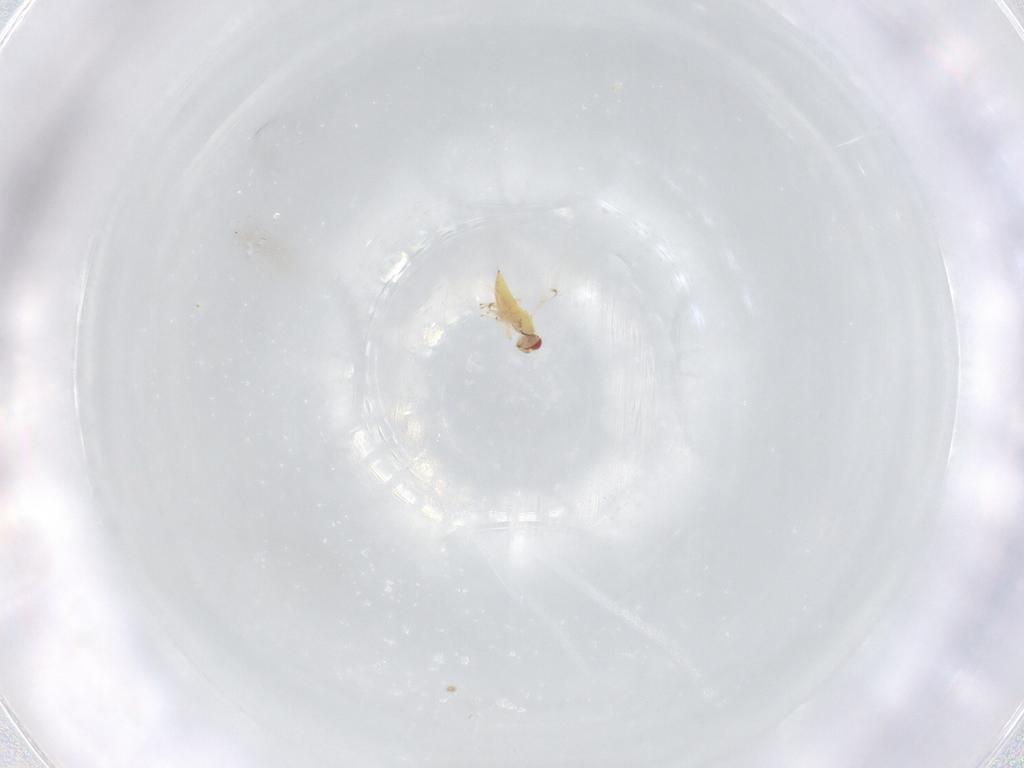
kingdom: Animalia
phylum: Arthropoda
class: Insecta
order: Hymenoptera
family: Trichogrammatidae
